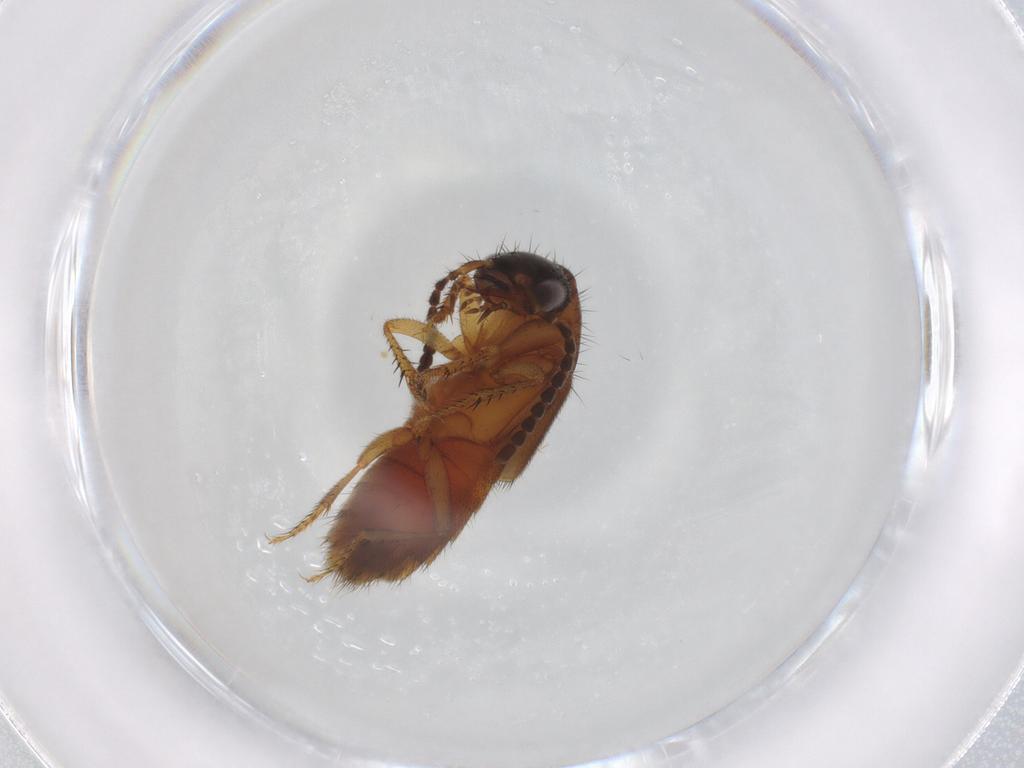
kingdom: Animalia
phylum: Arthropoda
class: Insecta
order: Coleoptera
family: Staphylinidae
